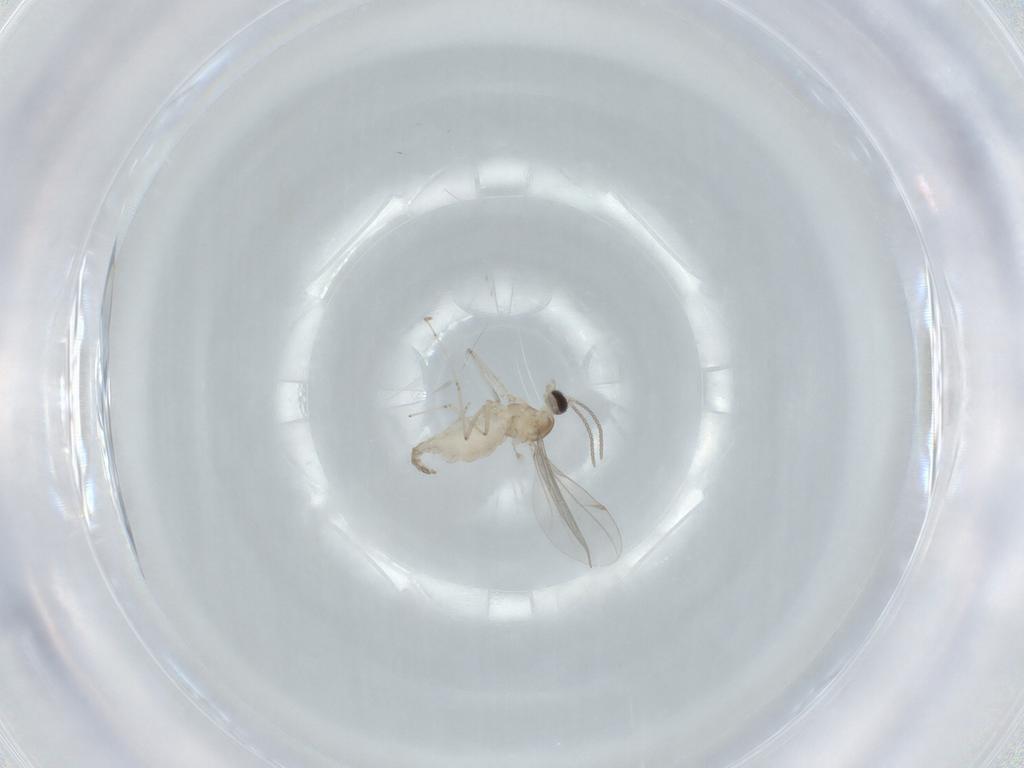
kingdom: Animalia
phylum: Arthropoda
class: Insecta
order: Diptera
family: Cecidomyiidae
